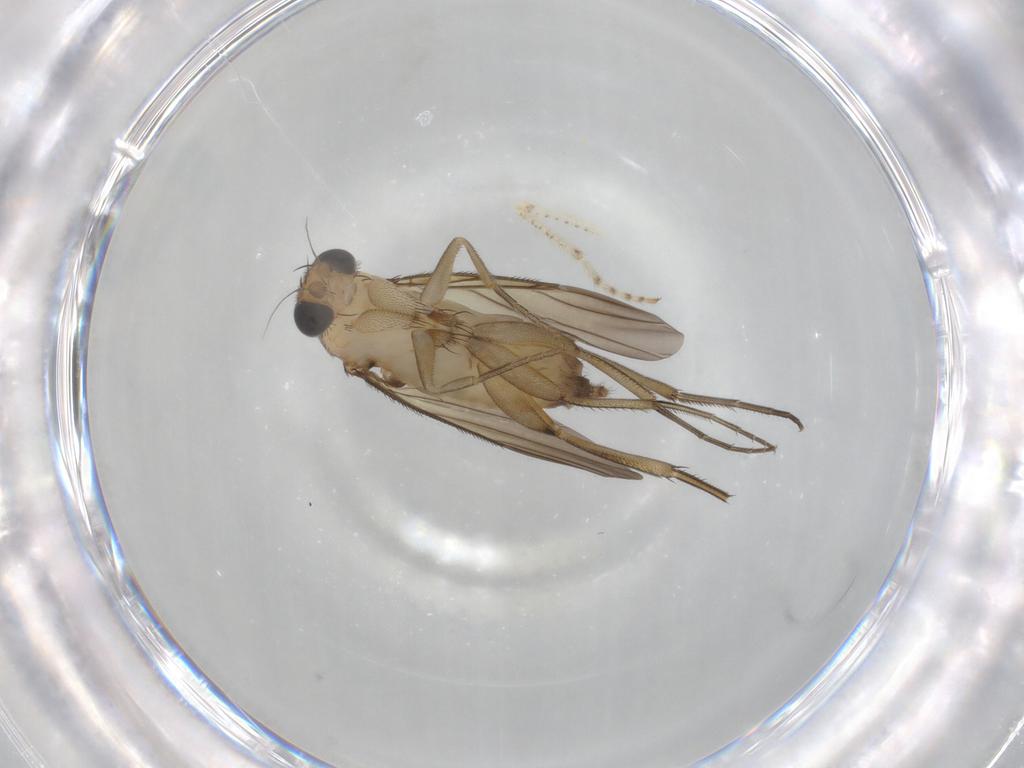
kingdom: Animalia
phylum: Arthropoda
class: Insecta
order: Diptera
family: Phoridae
